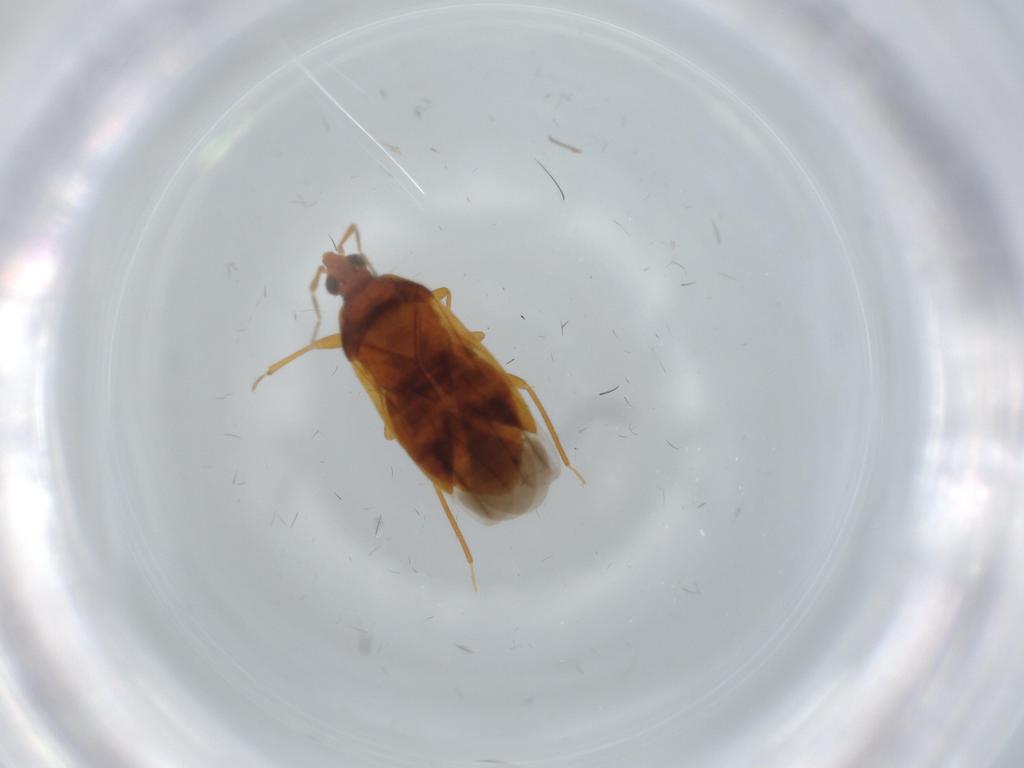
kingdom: Animalia
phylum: Arthropoda
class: Insecta
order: Hemiptera
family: Anthocoridae
